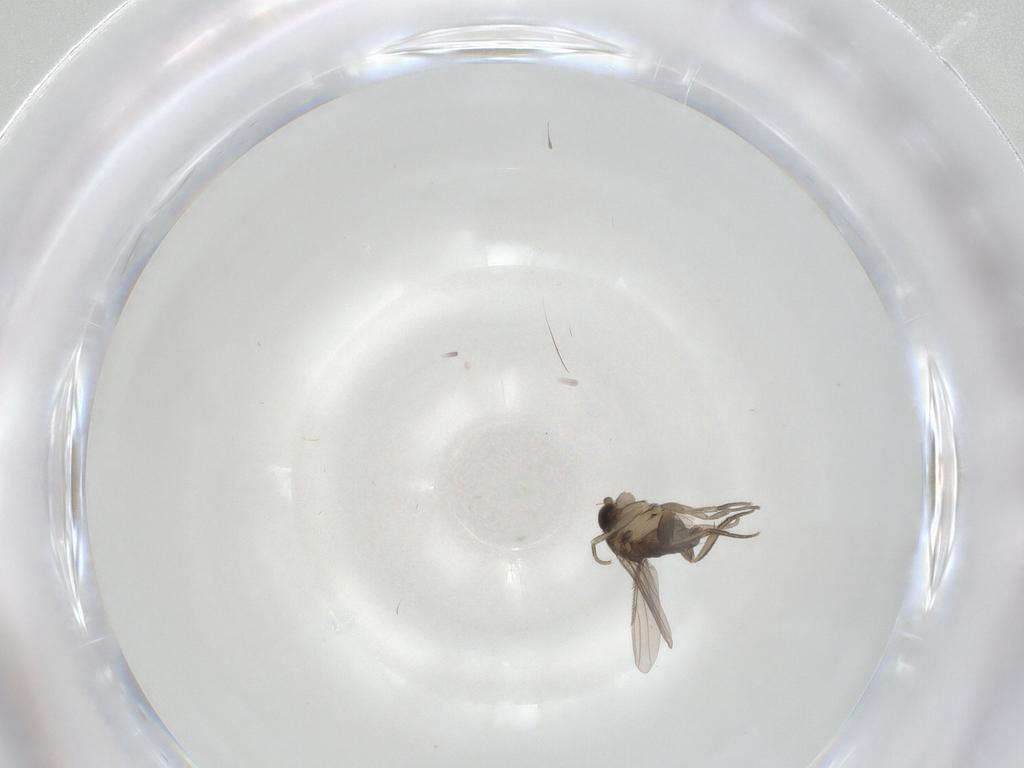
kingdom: Animalia
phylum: Arthropoda
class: Insecta
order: Diptera
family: Phoridae
